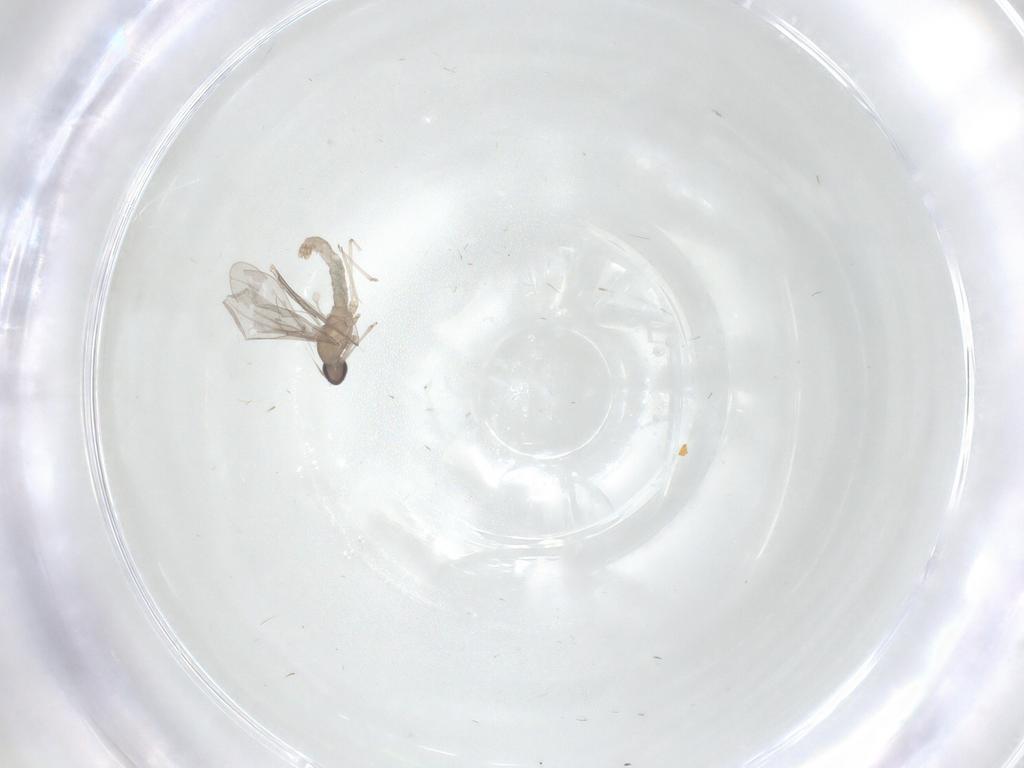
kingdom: Animalia
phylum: Arthropoda
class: Insecta
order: Diptera
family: Cecidomyiidae
